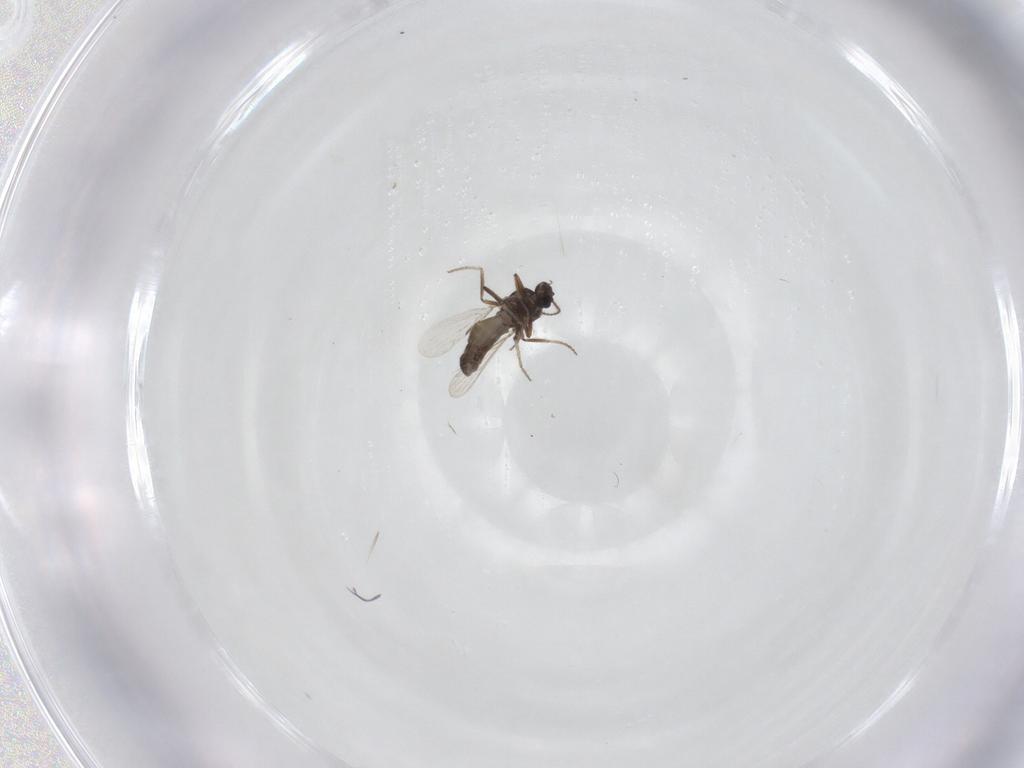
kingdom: Animalia
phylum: Arthropoda
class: Insecta
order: Diptera
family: Ceratopogonidae
